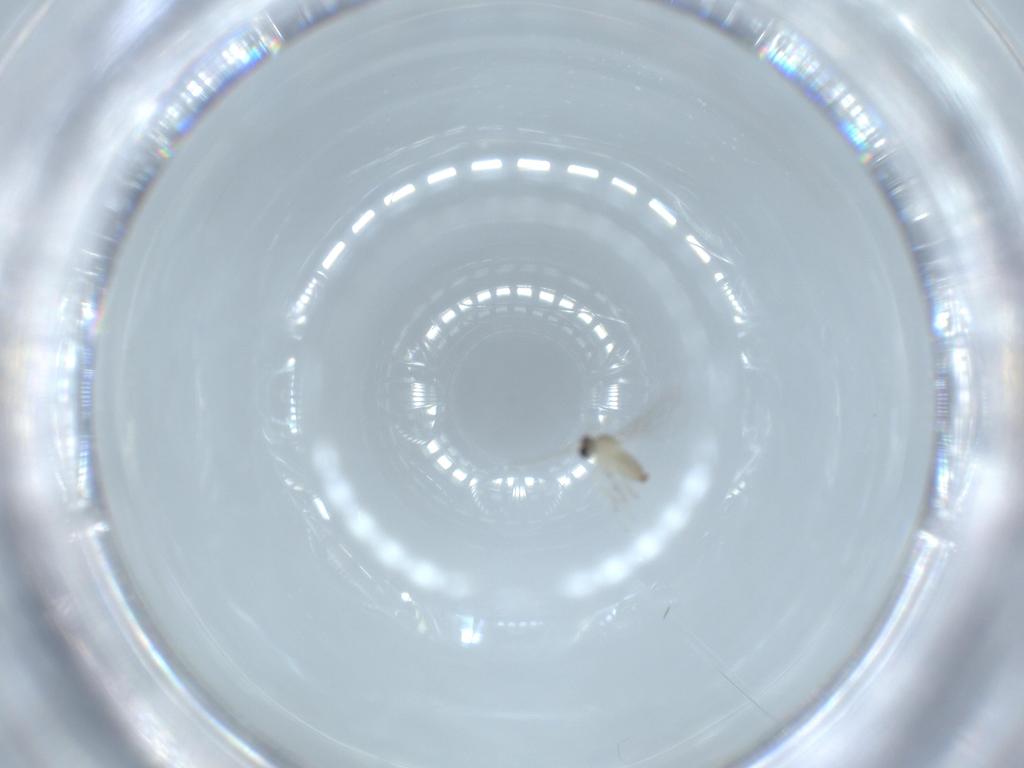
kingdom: Animalia
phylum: Arthropoda
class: Insecta
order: Diptera
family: Cecidomyiidae
